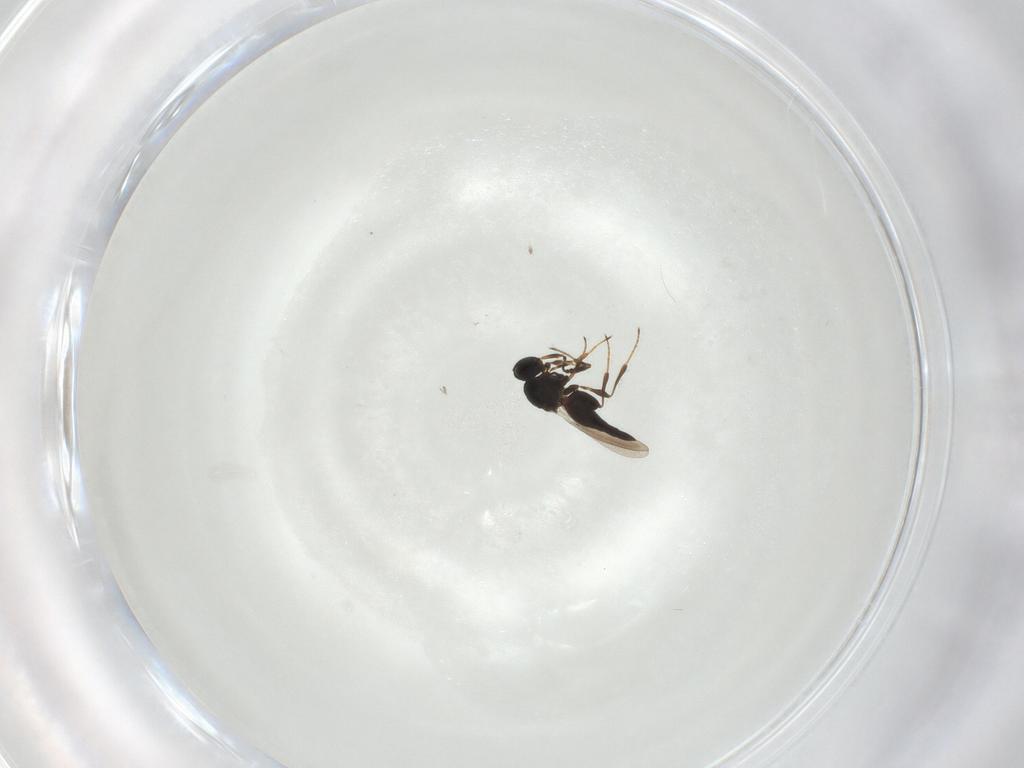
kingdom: Animalia
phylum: Arthropoda
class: Insecta
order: Hymenoptera
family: Platygastridae
